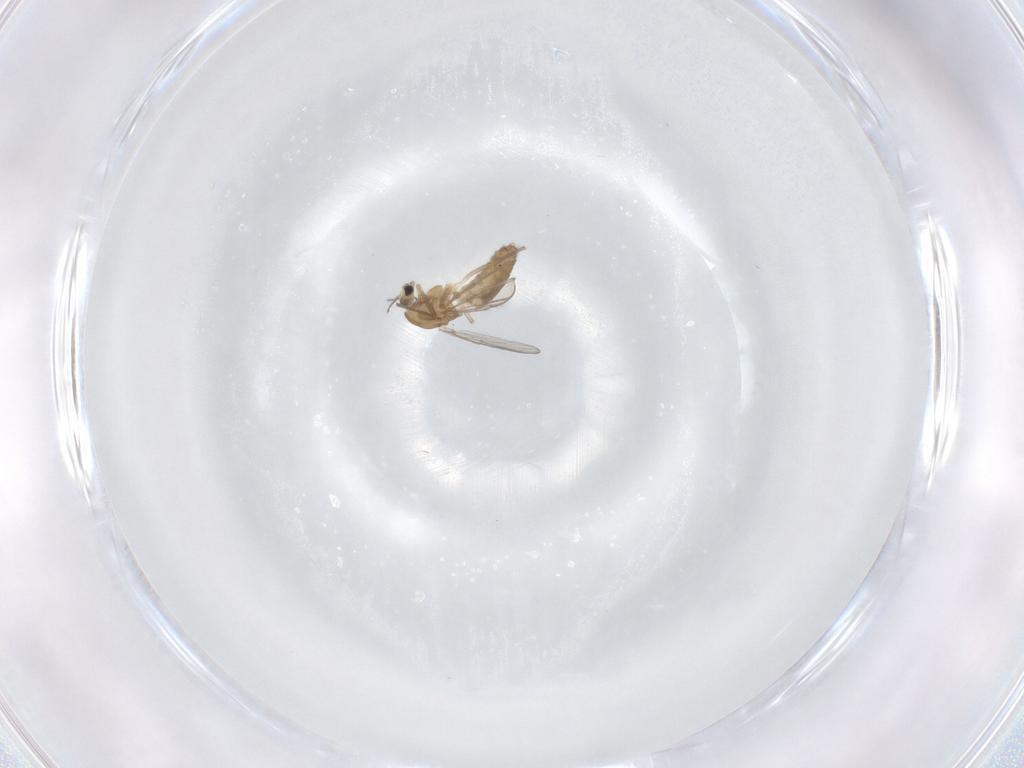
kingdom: Animalia
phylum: Arthropoda
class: Insecta
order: Diptera
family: Chironomidae
